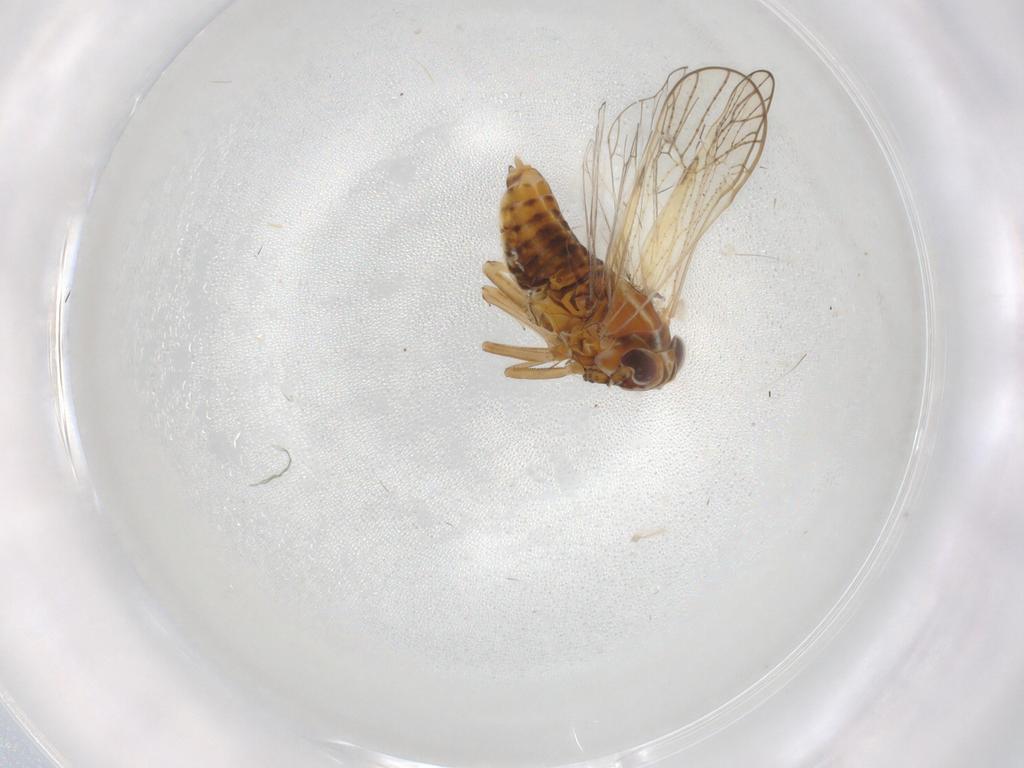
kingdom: Animalia
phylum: Arthropoda
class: Insecta
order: Hemiptera
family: Delphacidae
